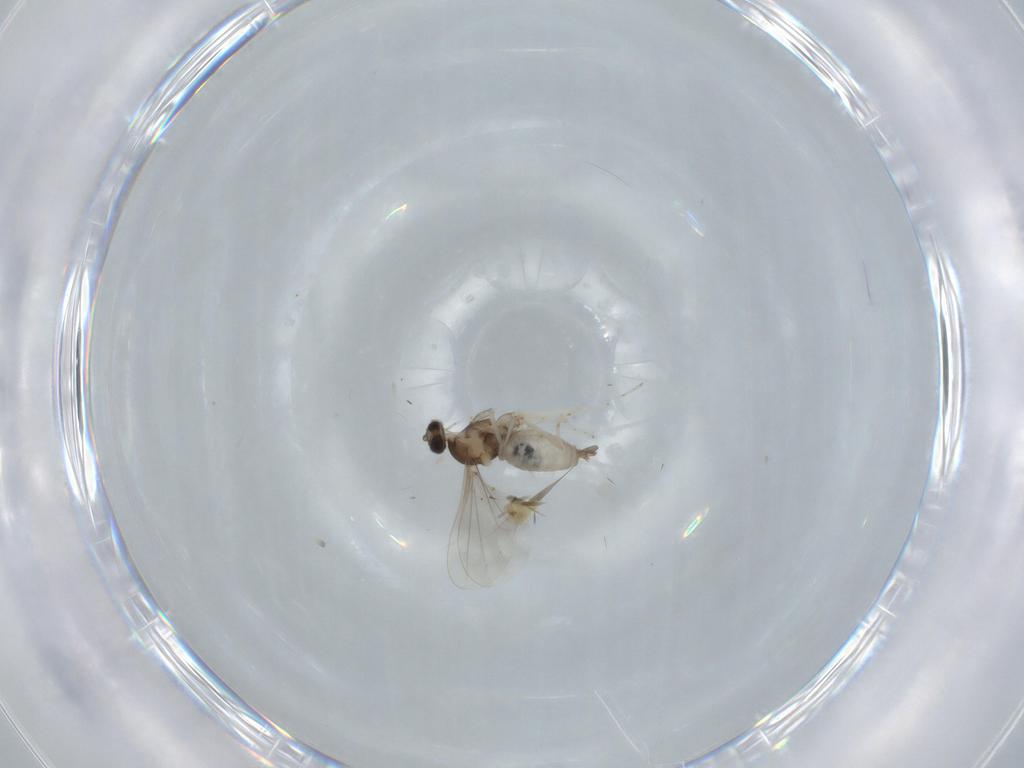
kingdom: Animalia
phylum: Arthropoda
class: Insecta
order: Diptera
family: Cecidomyiidae
